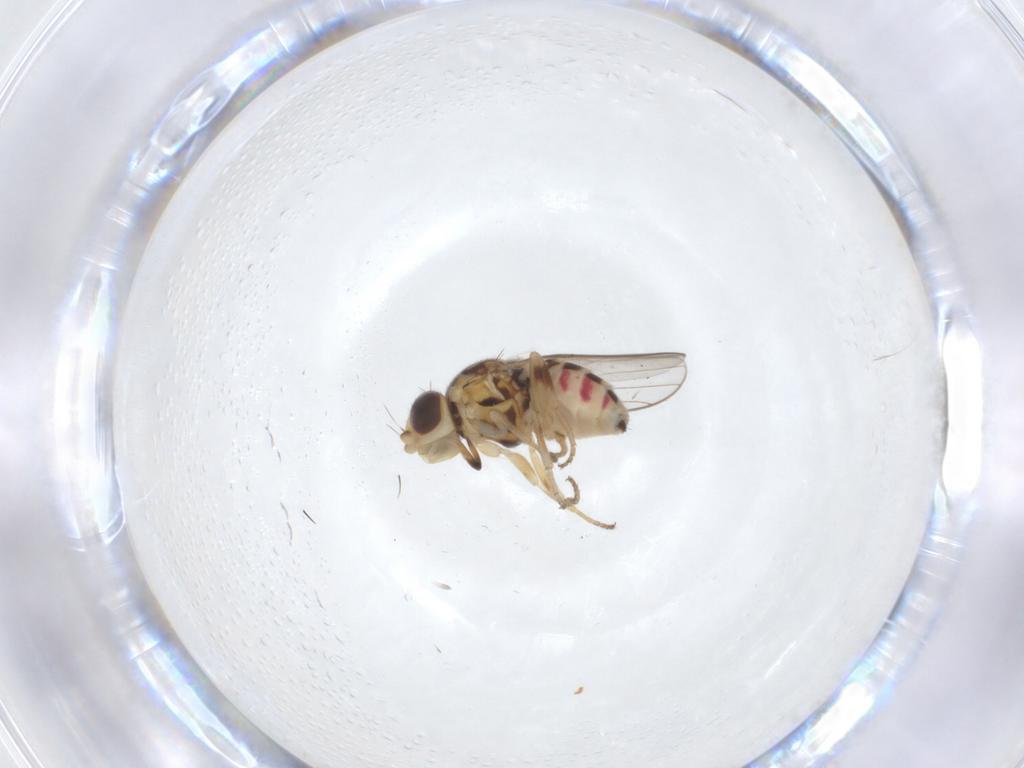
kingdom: Animalia
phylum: Arthropoda
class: Insecta
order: Diptera
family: Chloropidae
